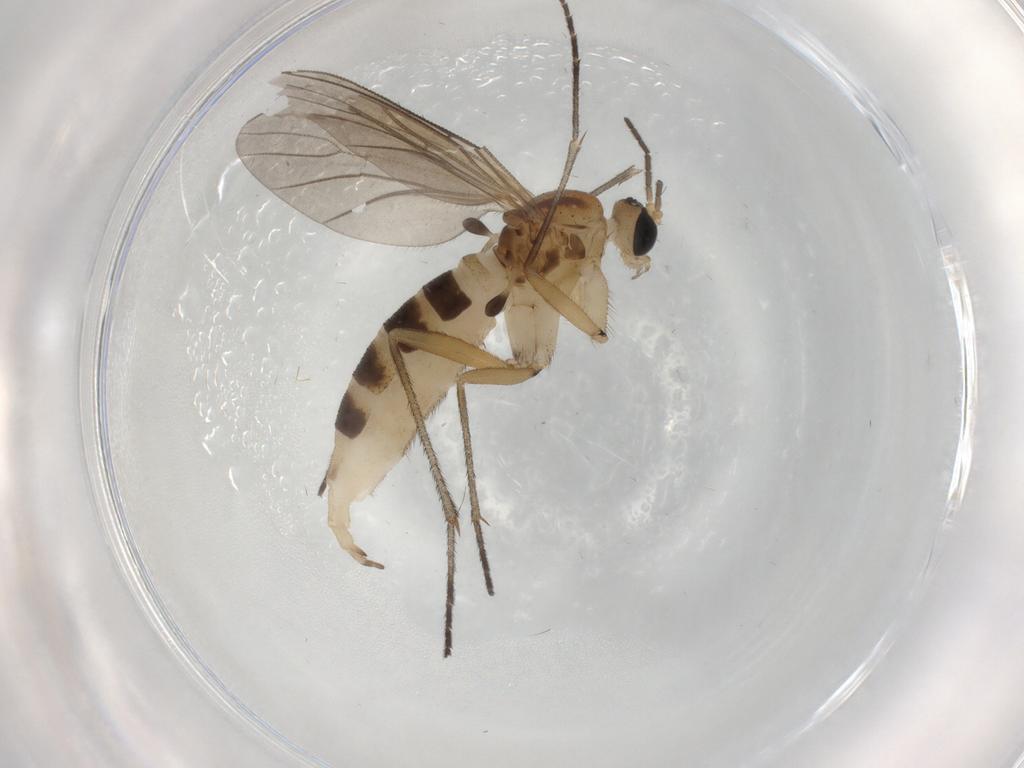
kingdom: Animalia
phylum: Arthropoda
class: Insecta
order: Diptera
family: Sciaridae
